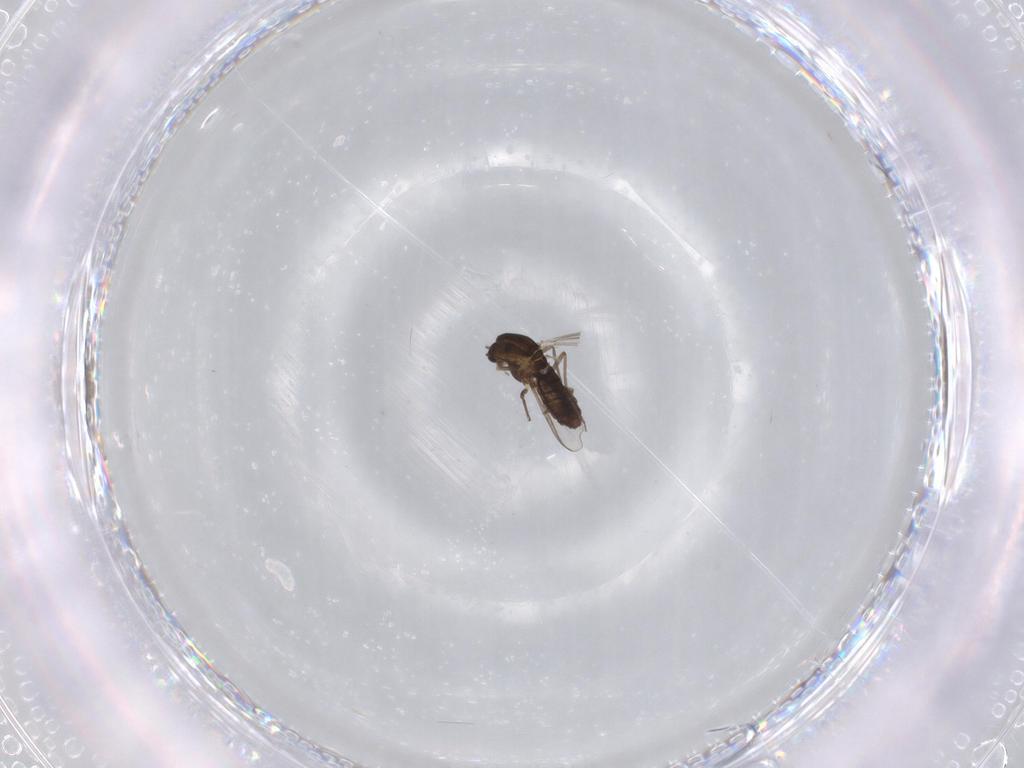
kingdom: Animalia
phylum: Arthropoda
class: Insecta
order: Diptera
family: Chironomidae
